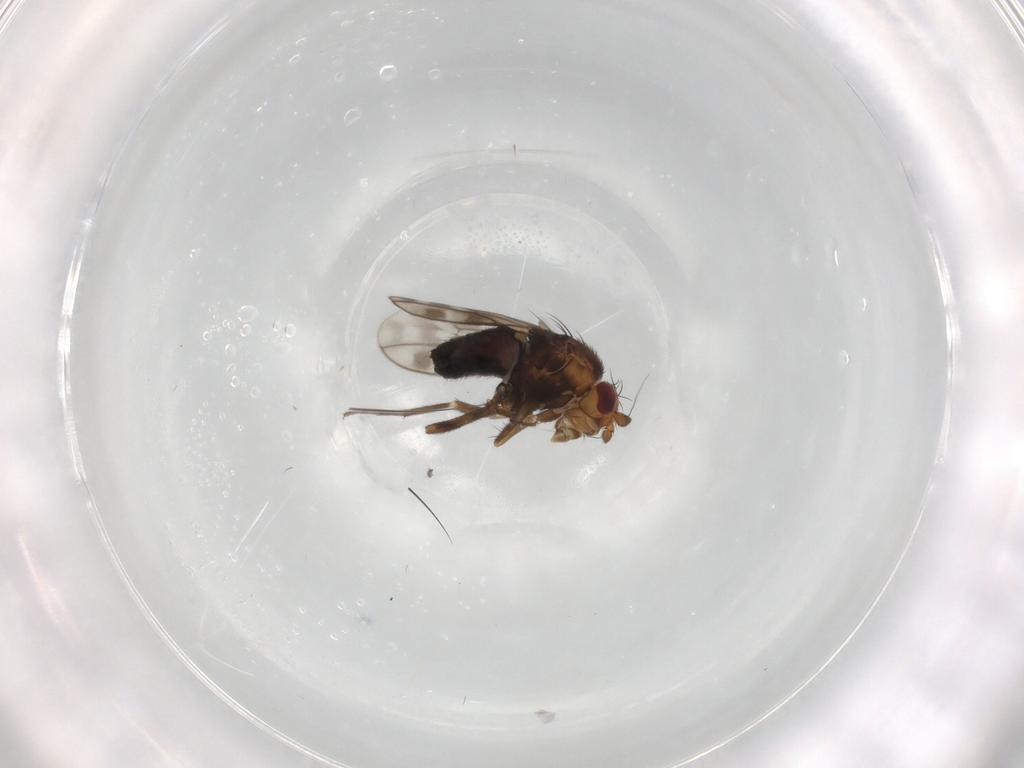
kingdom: Animalia
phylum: Arthropoda
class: Insecta
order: Diptera
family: Sphaeroceridae
